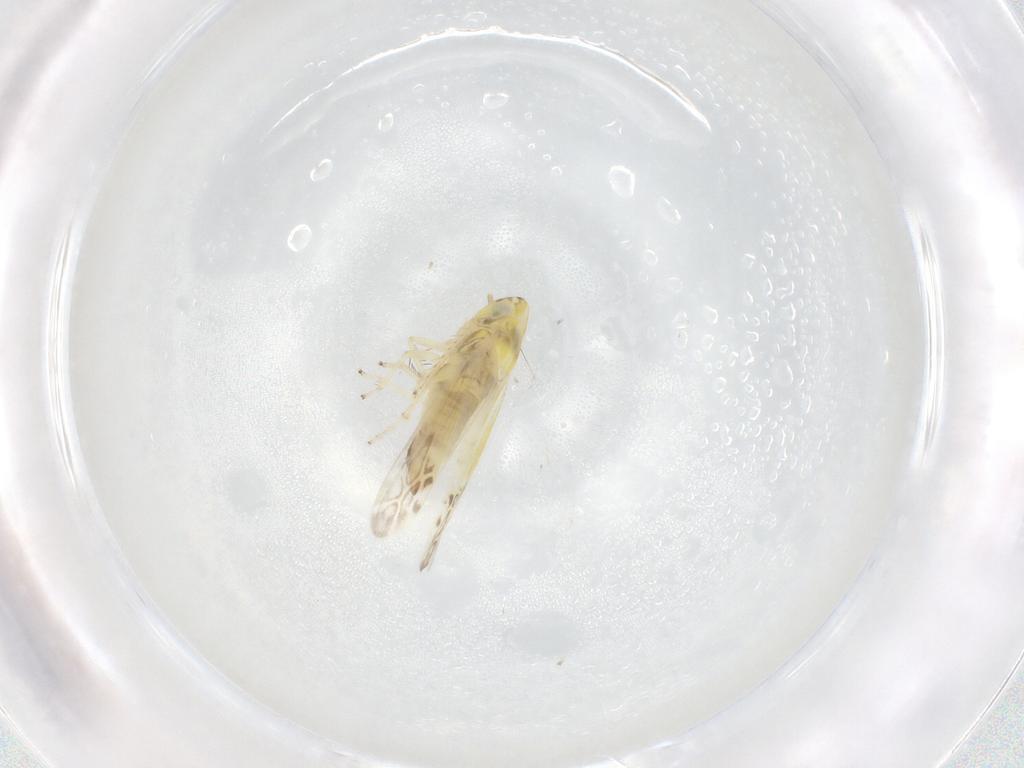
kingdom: Animalia
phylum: Arthropoda
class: Insecta
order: Hemiptera
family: Cicadellidae
